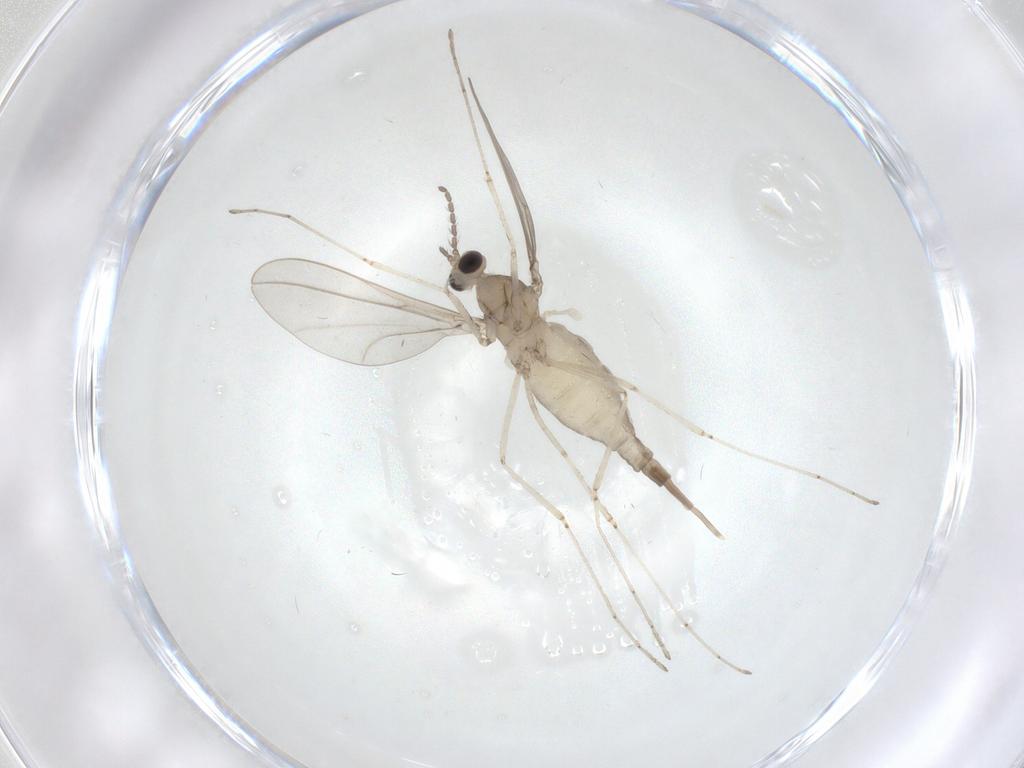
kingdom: Animalia
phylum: Arthropoda
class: Insecta
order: Diptera
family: Cecidomyiidae
